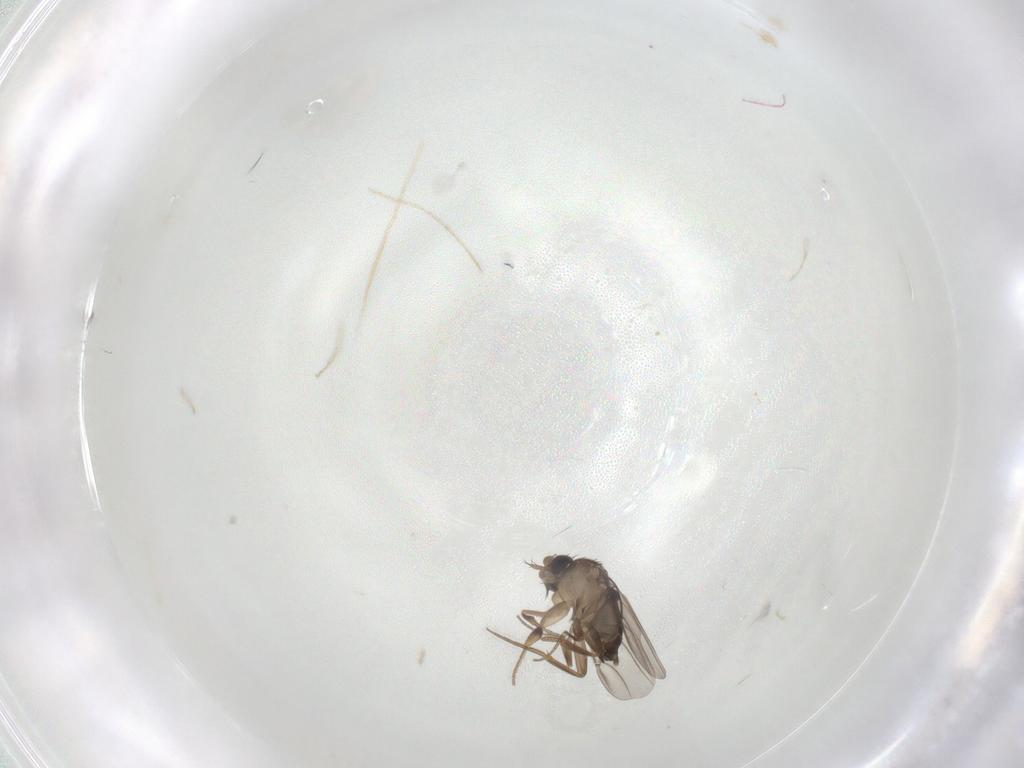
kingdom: Animalia
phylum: Arthropoda
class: Insecta
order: Diptera
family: Phoridae
